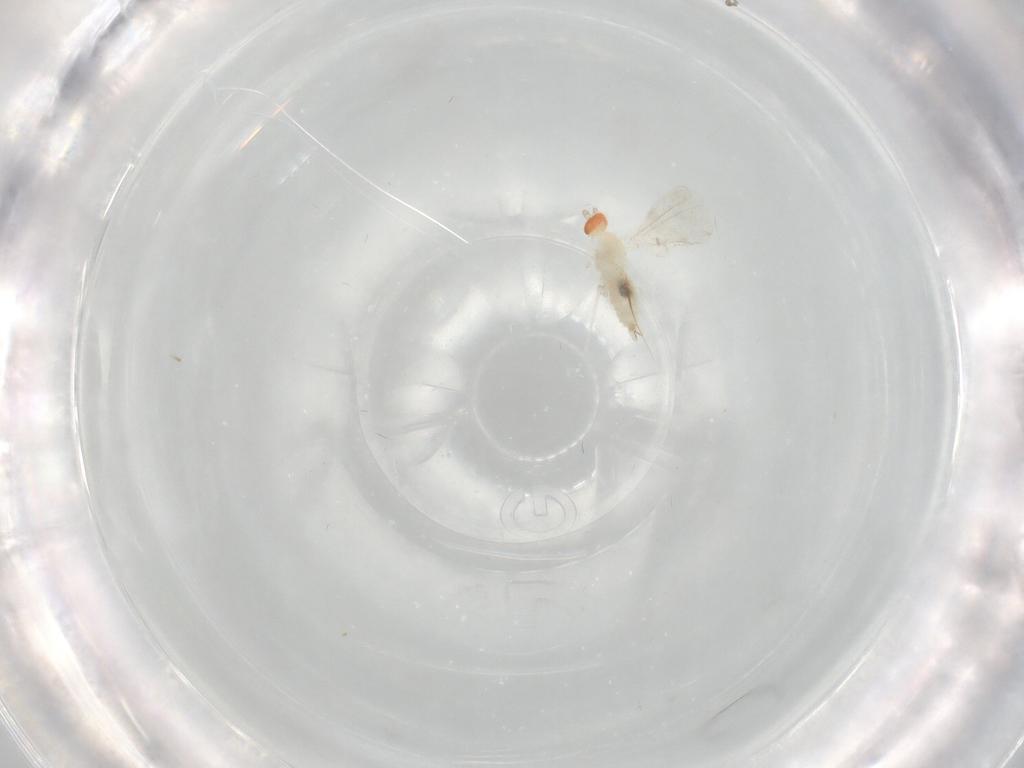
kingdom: Animalia
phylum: Arthropoda
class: Insecta
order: Diptera
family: Cecidomyiidae
